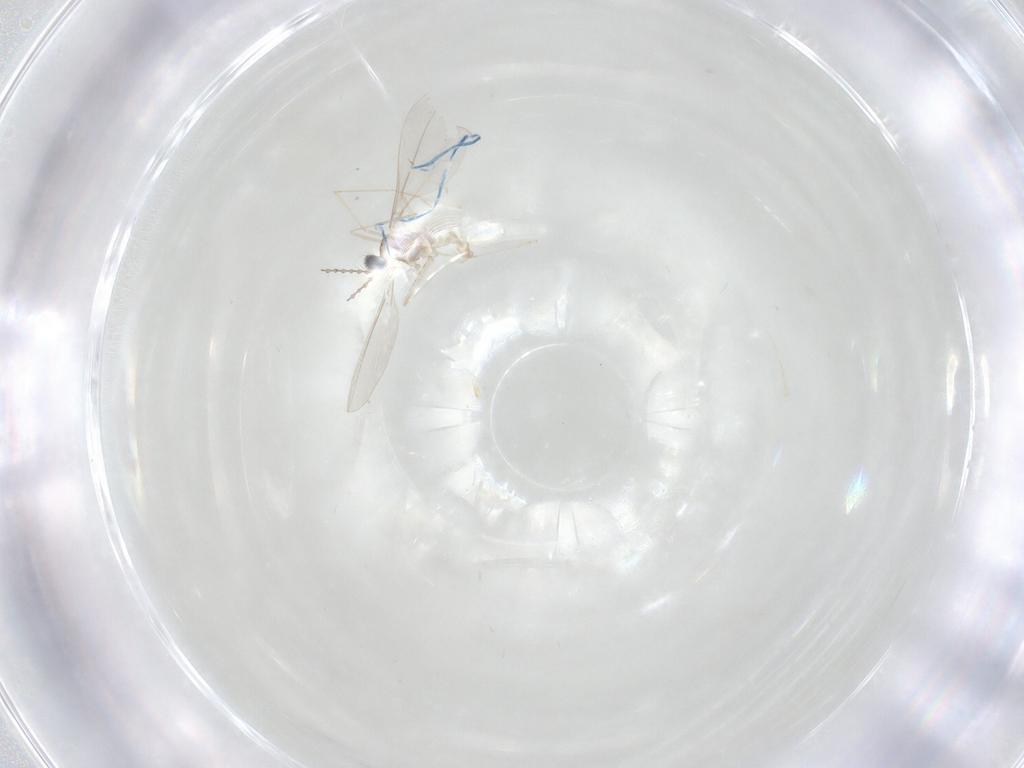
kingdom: Animalia
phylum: Arthropoda
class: Insecta
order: Diptera
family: Cecidomyiidae
